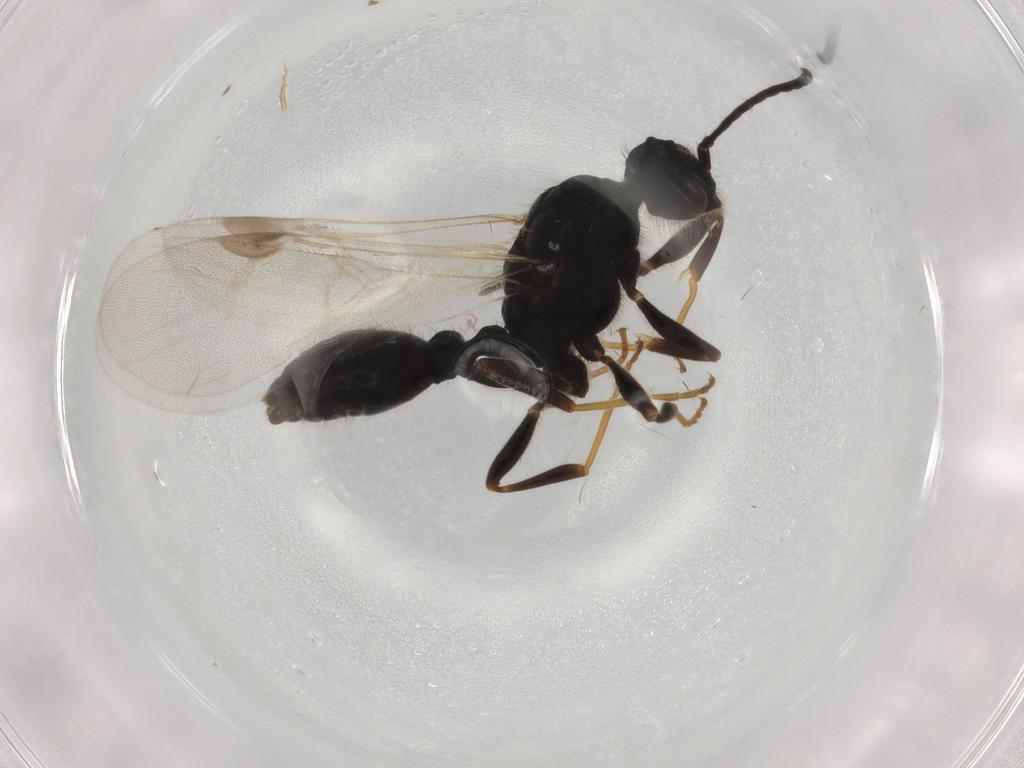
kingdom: Animalia
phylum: Arthropoda
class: Insecta
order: Hymenoptera
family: Formicidae
